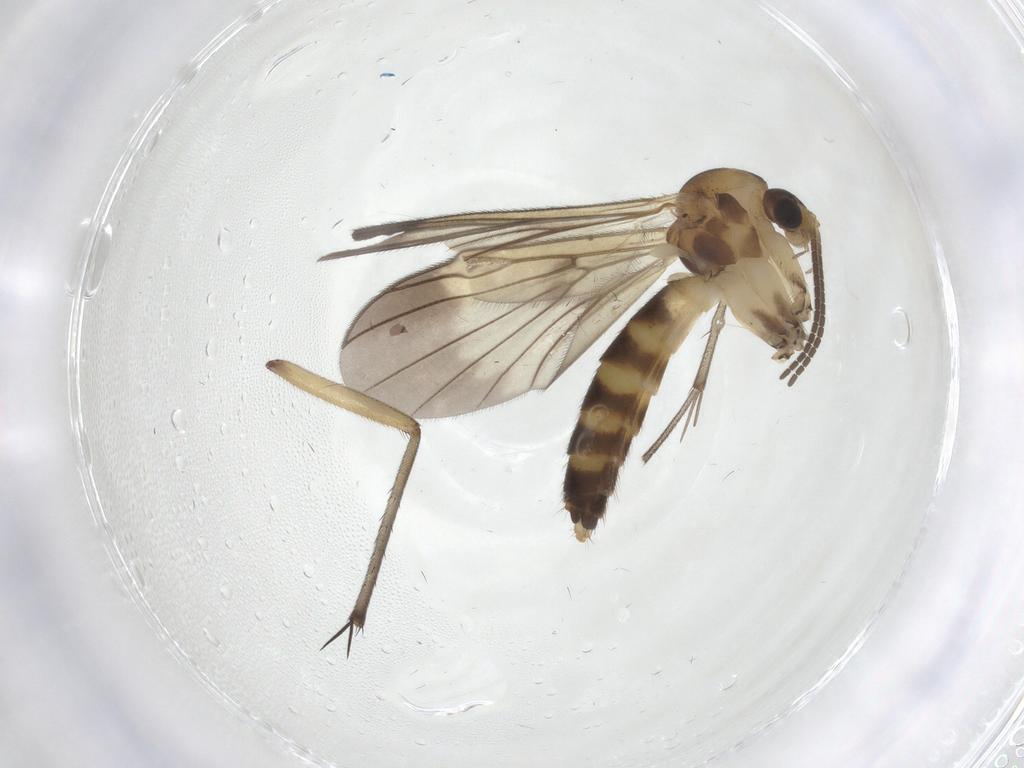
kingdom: Animalia
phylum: Arthropoda
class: Insecta
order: Diptera
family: Mycetophilidae
